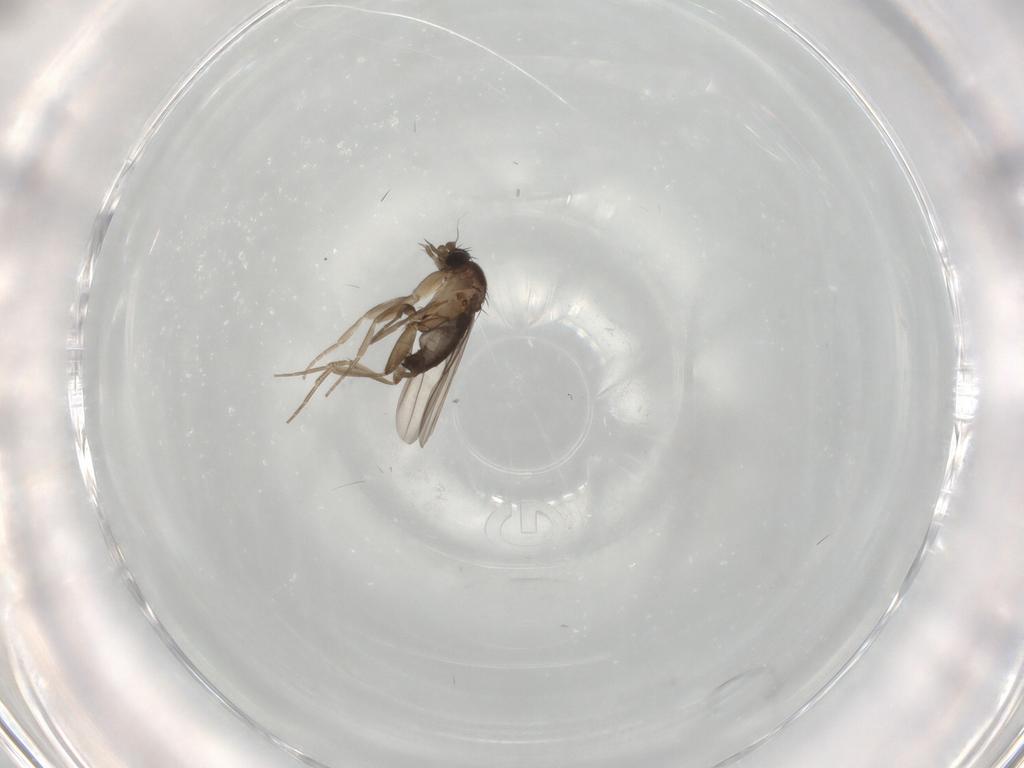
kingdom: Animalia
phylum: Arthropoda
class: Insecta
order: Diptera
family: Phoridae
